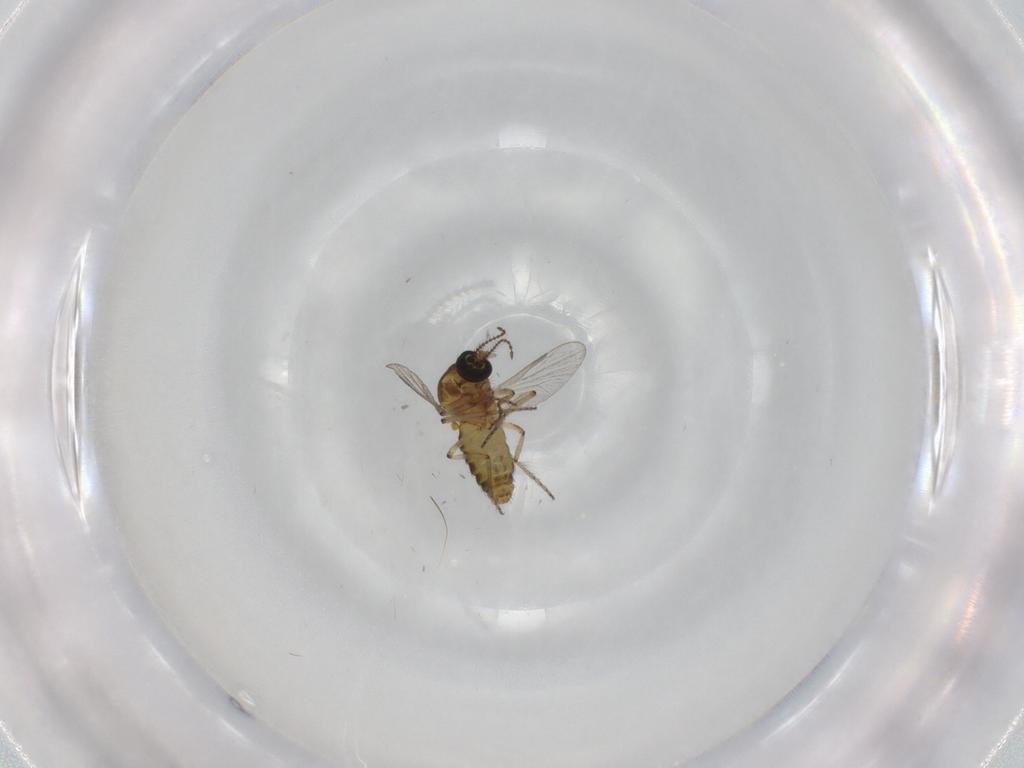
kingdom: Animalia
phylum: Arthropoda
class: Insecta
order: Diptera
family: Ceratopogonidae
